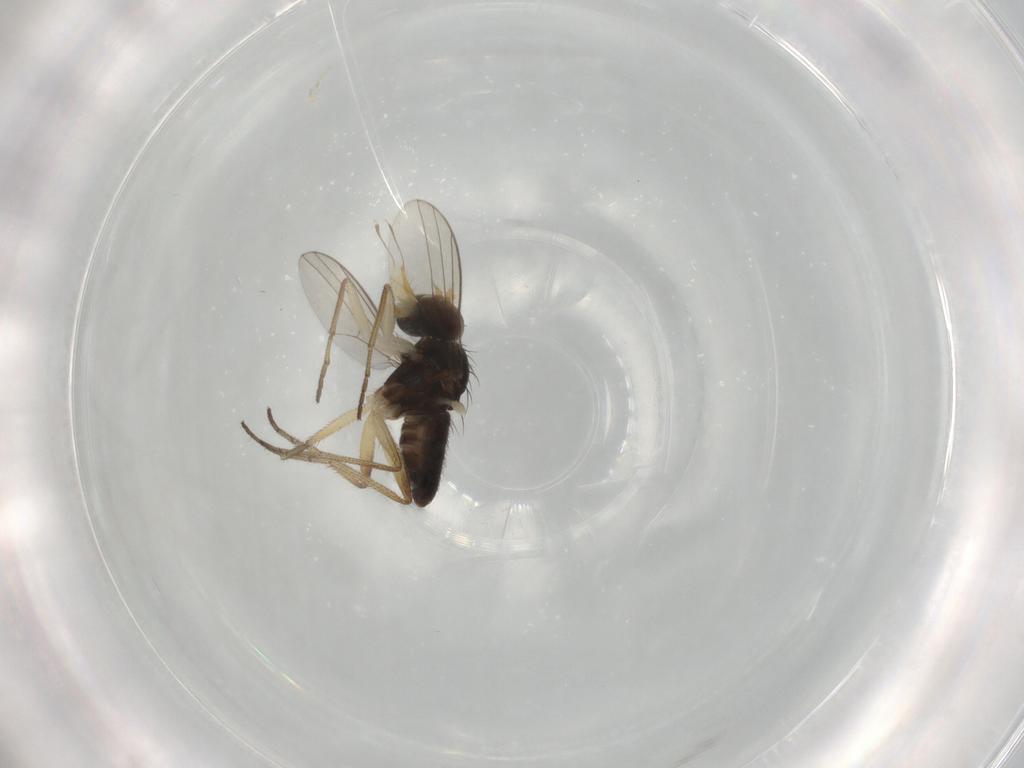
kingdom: Animalia
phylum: Arthropoda
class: Insecta
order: Diptera
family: Dolichopodidae
